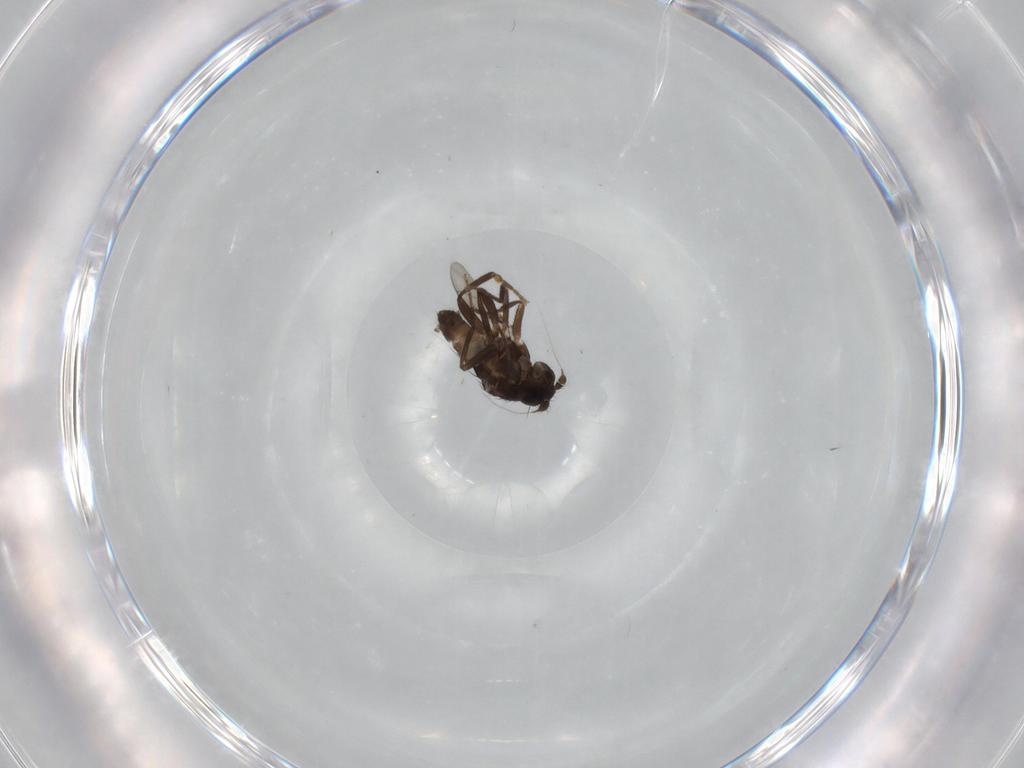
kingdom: Animalia
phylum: Arthropoda
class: Insecta
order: Diptera
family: Sphaeroceridae
